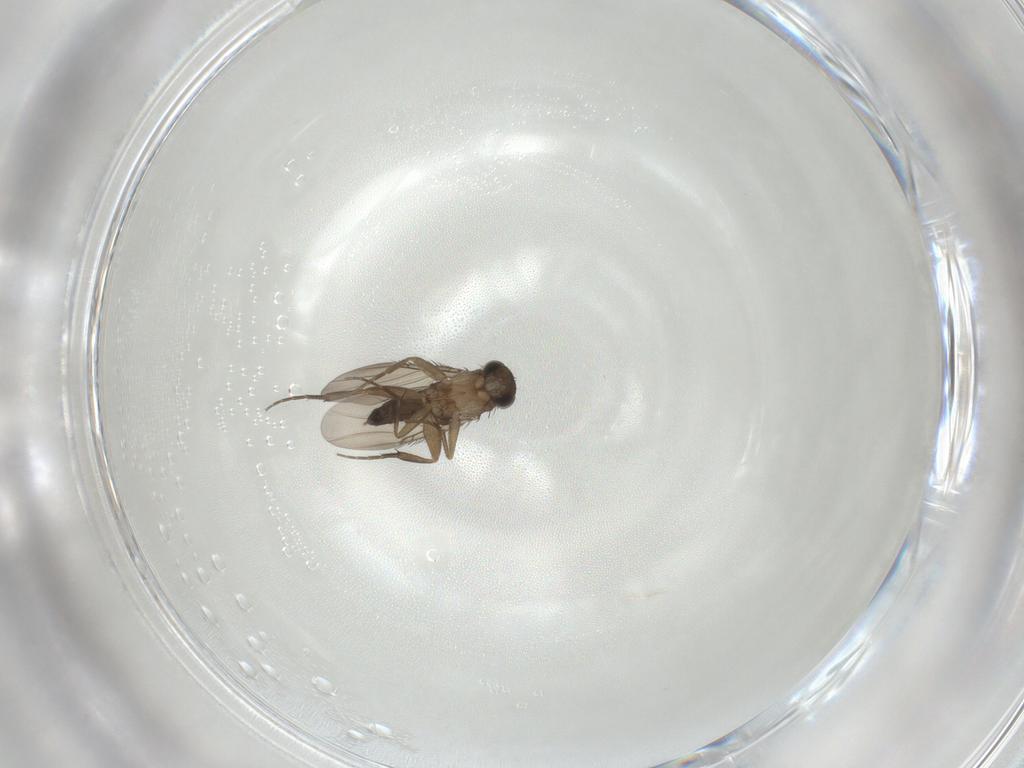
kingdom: Animalia
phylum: Arthropoda
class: Insecta
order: Diptera
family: Phoridae
